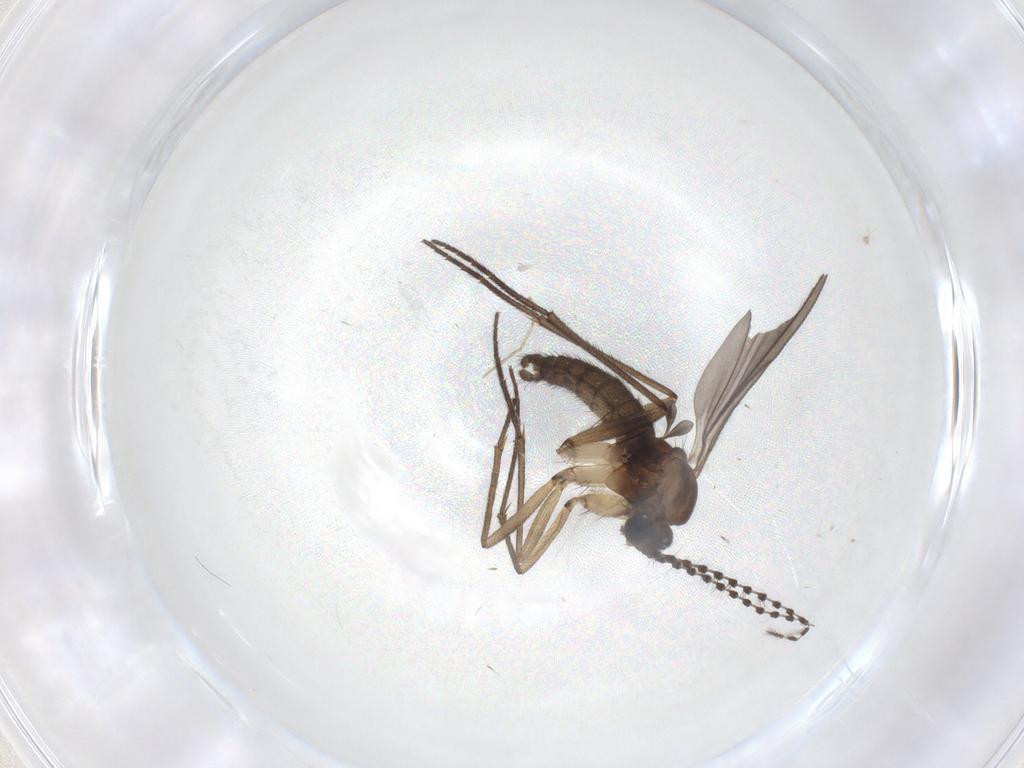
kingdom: Animalia
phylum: Arthropoda
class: Insecta
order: Diptera
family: Sciaridae
